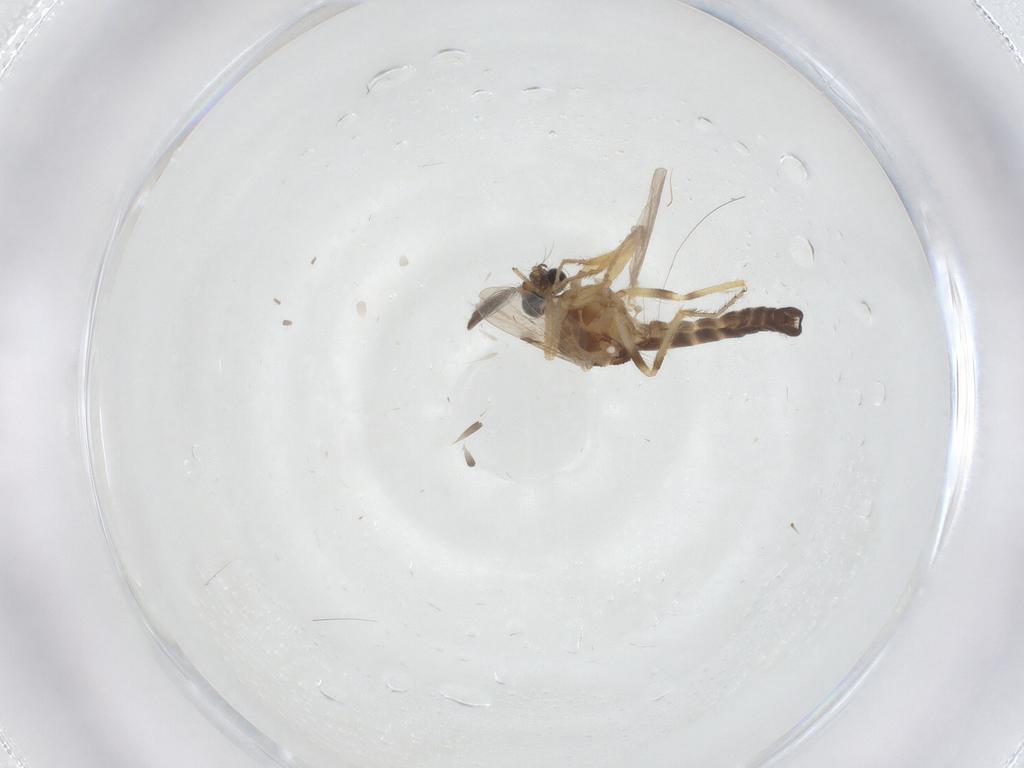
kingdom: Animalia
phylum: Arthropoda
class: Insecta
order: Diptera
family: Ceratopogonidae
